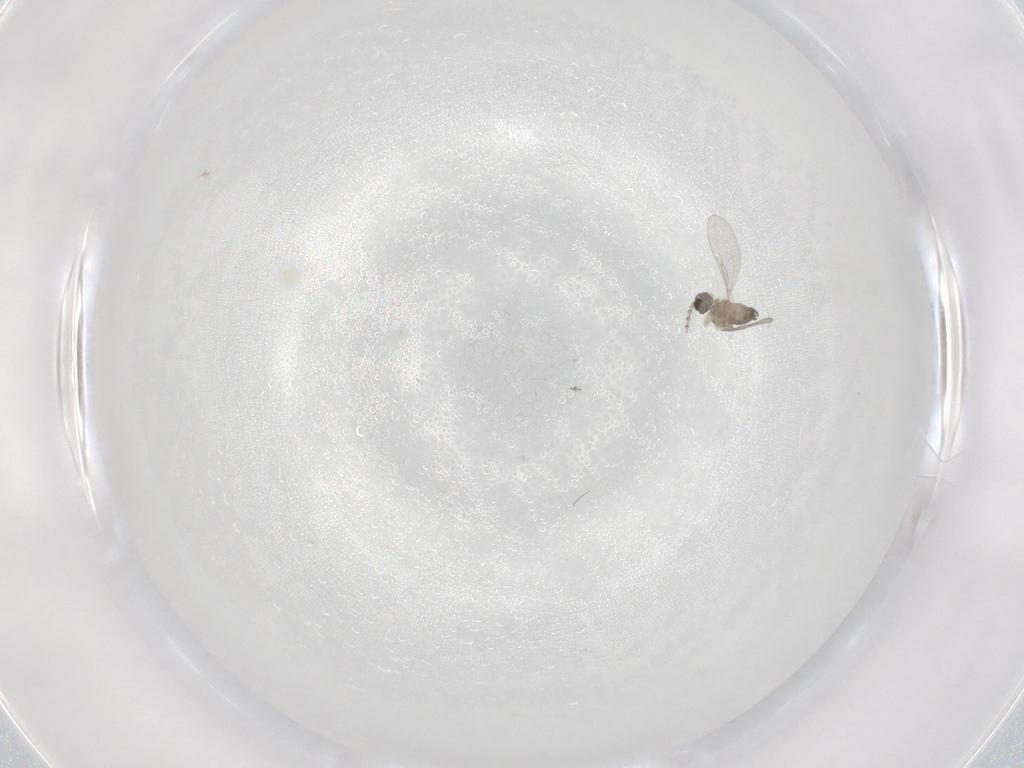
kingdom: Animalia
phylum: Arthropoda
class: Insecta
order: Diptera
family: Cecidomyiidae
